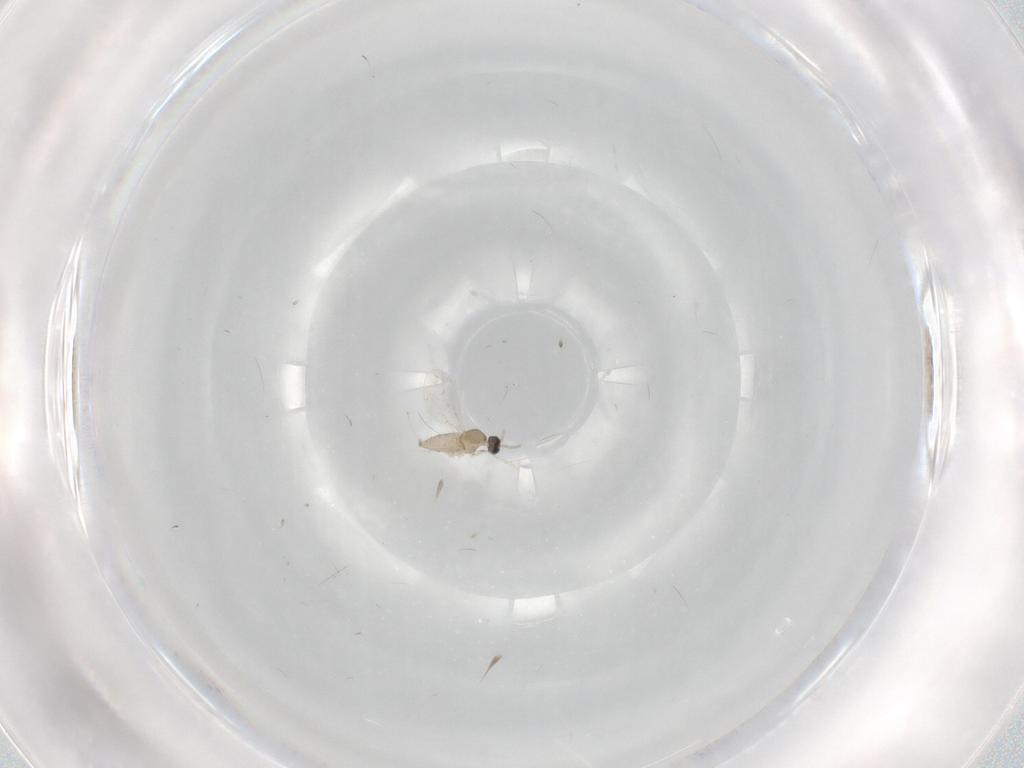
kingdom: Animalia
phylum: Arthropoda
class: Insecta
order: Diptera
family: Cecidomyiidae
